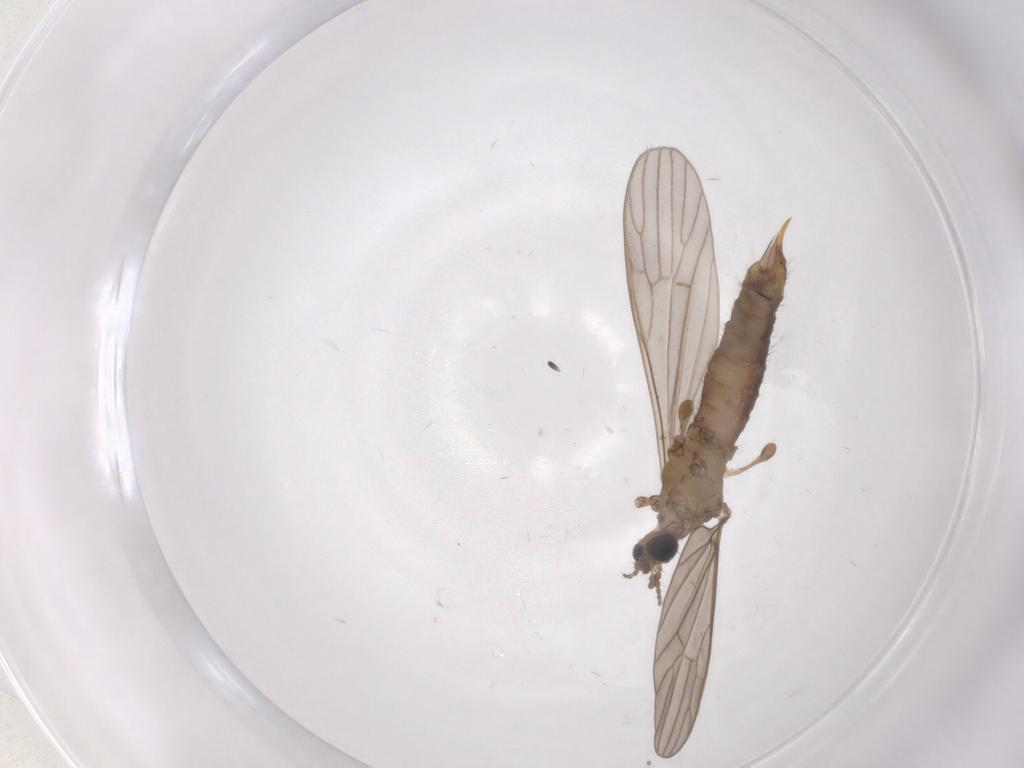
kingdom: Animalia
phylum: Arthropoda
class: Insecta
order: Diptera
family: Limoniidae
